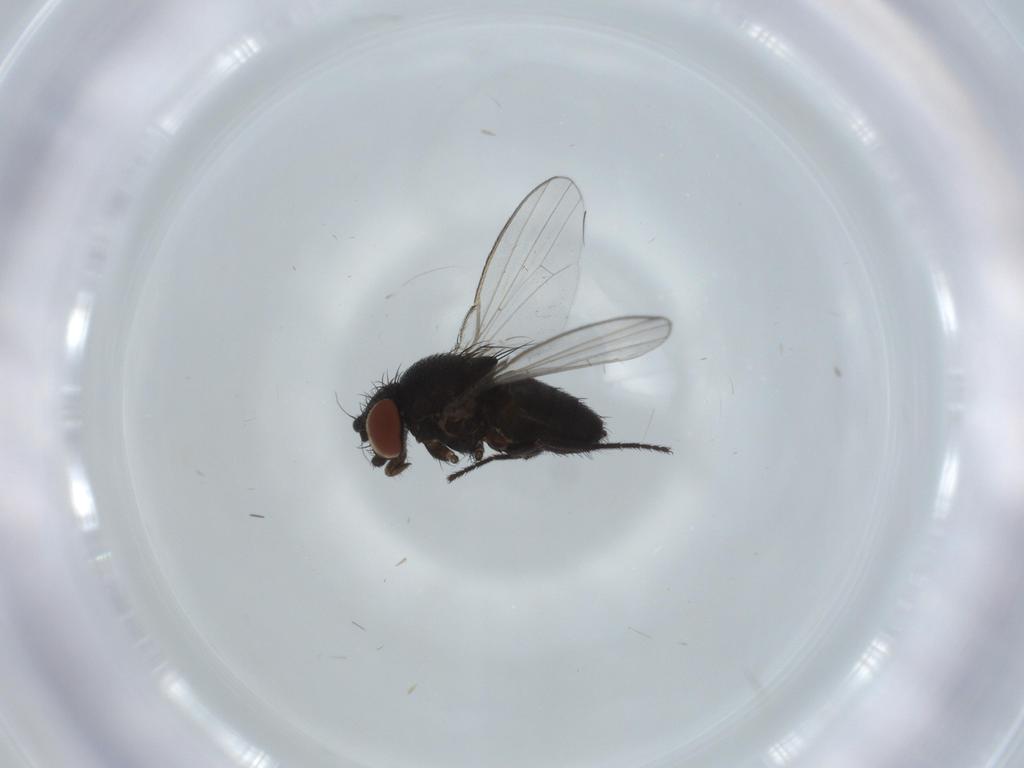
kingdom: Animalia
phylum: Arthropoda
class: Insecta
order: Diptera
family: Milichiidae
